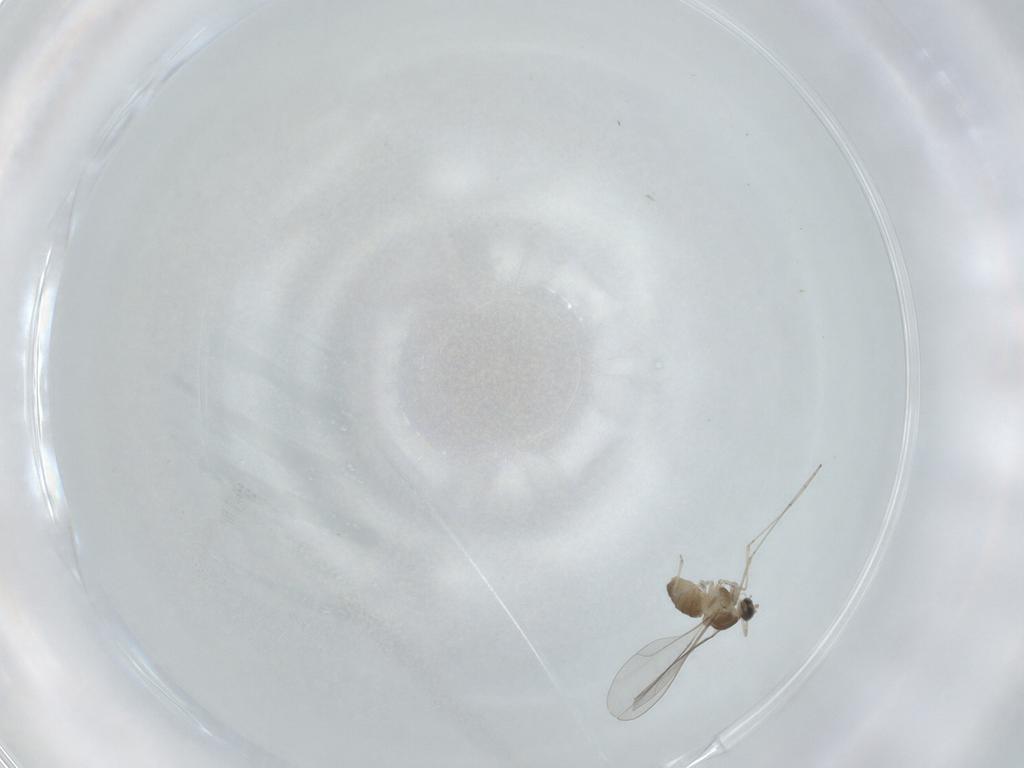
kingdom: Animalia
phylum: Arthropoda
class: Insecta
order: Diptera
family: Cecidomyiidae
